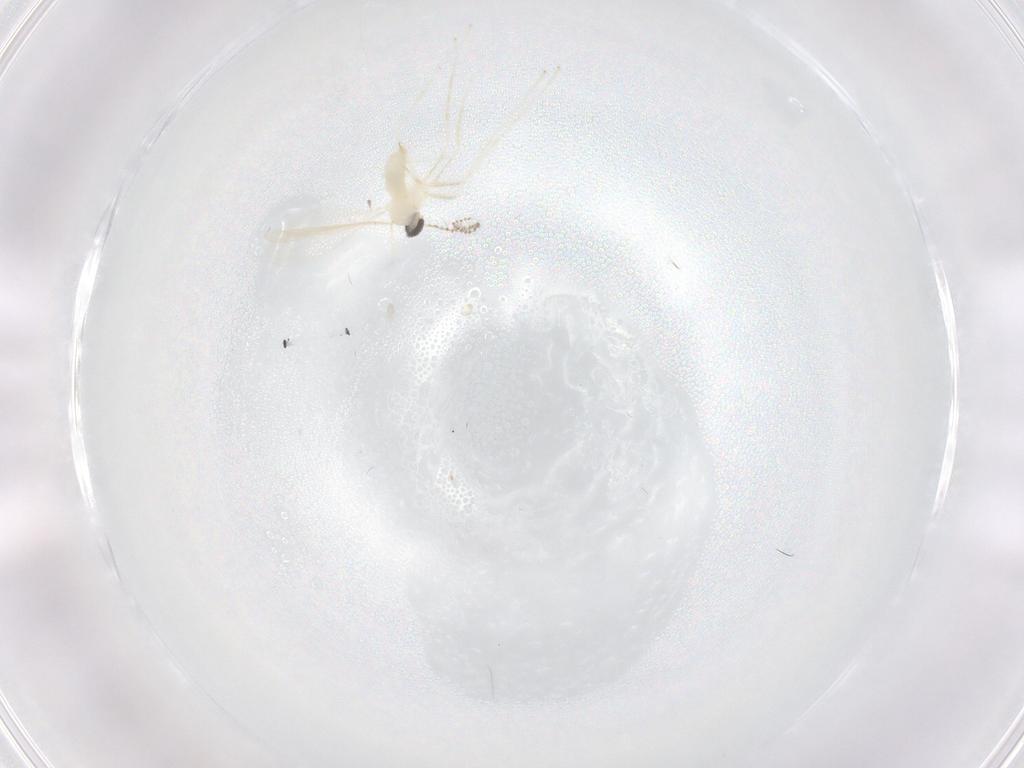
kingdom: Animalia
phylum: Arthropoda
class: Insecta
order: Diptera
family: Cecidomyiidae
